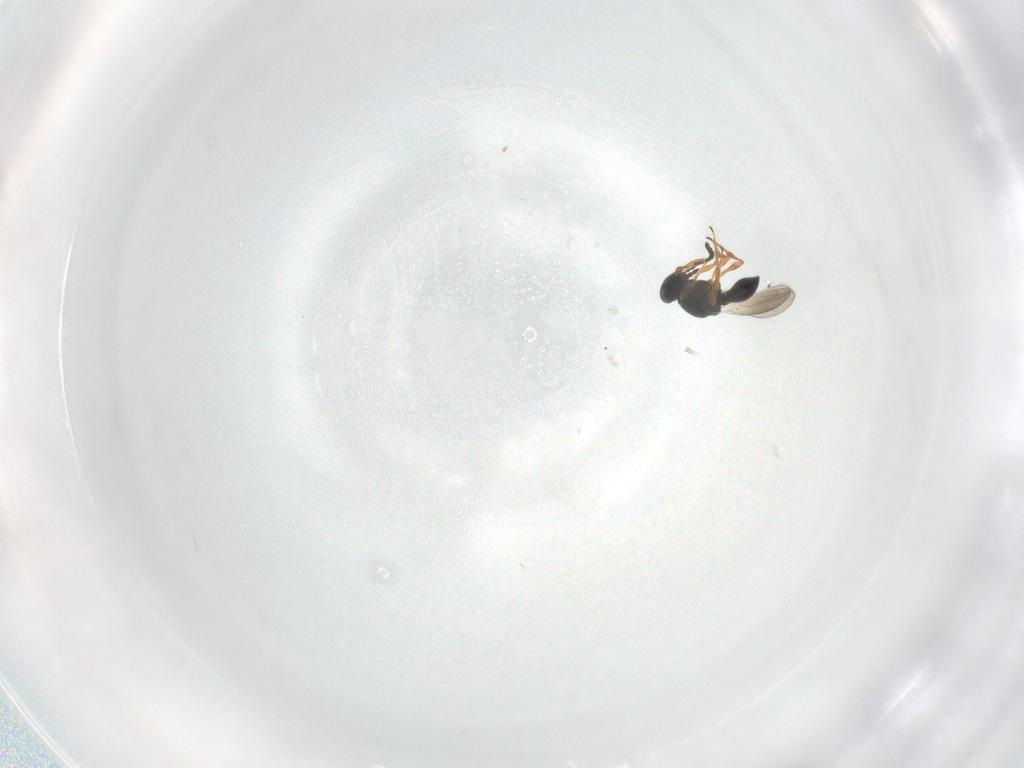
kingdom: Animalia
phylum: Arthropoda
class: Insecta
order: Hymenoptera
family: Platygastridae
